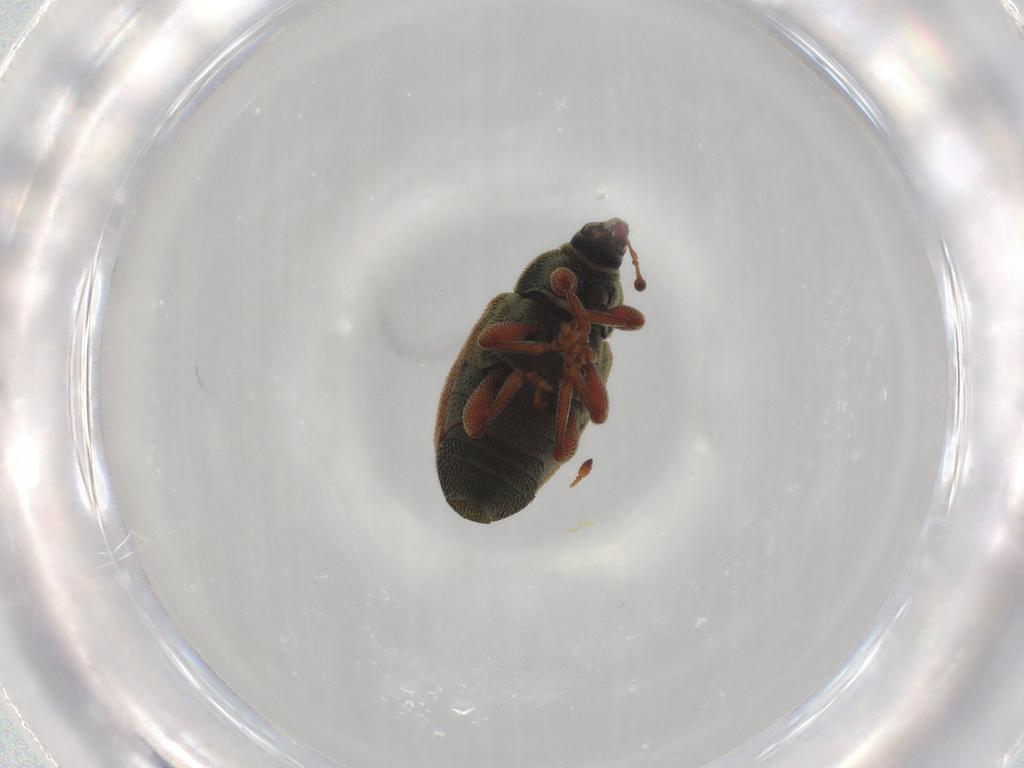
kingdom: Animalia
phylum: Arthropoda
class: Insecta
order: Coleoptera
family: Curculionidae
